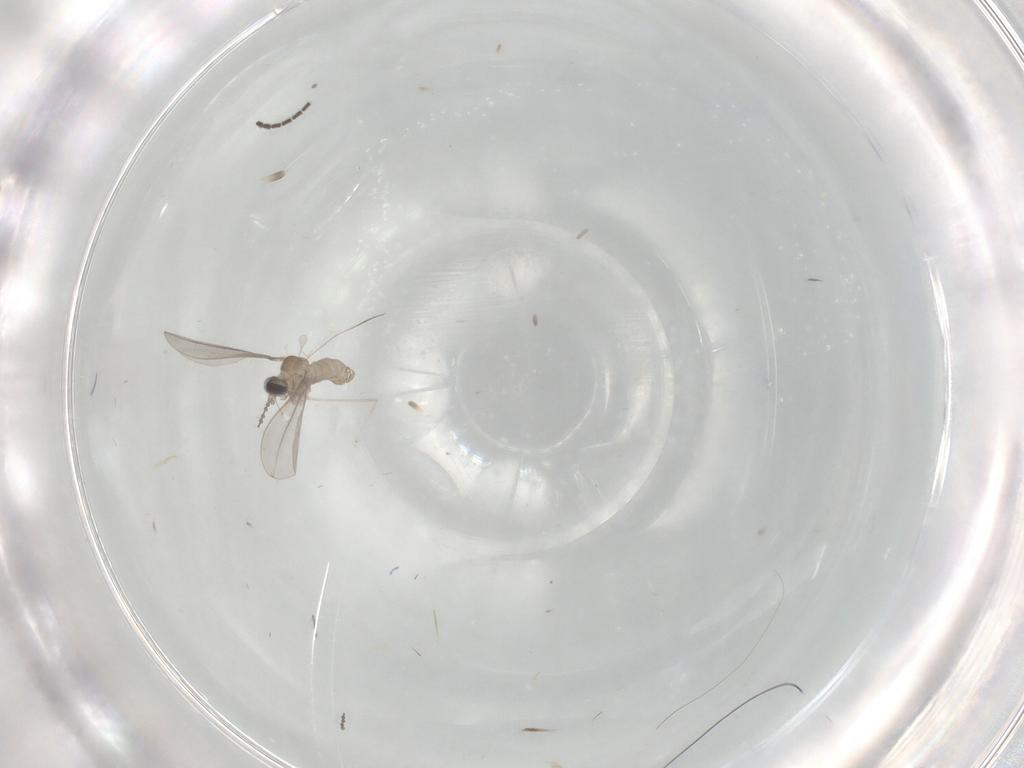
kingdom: Animalia
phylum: Arthropoda
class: Insecta
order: Diptera
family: Sciaridae
